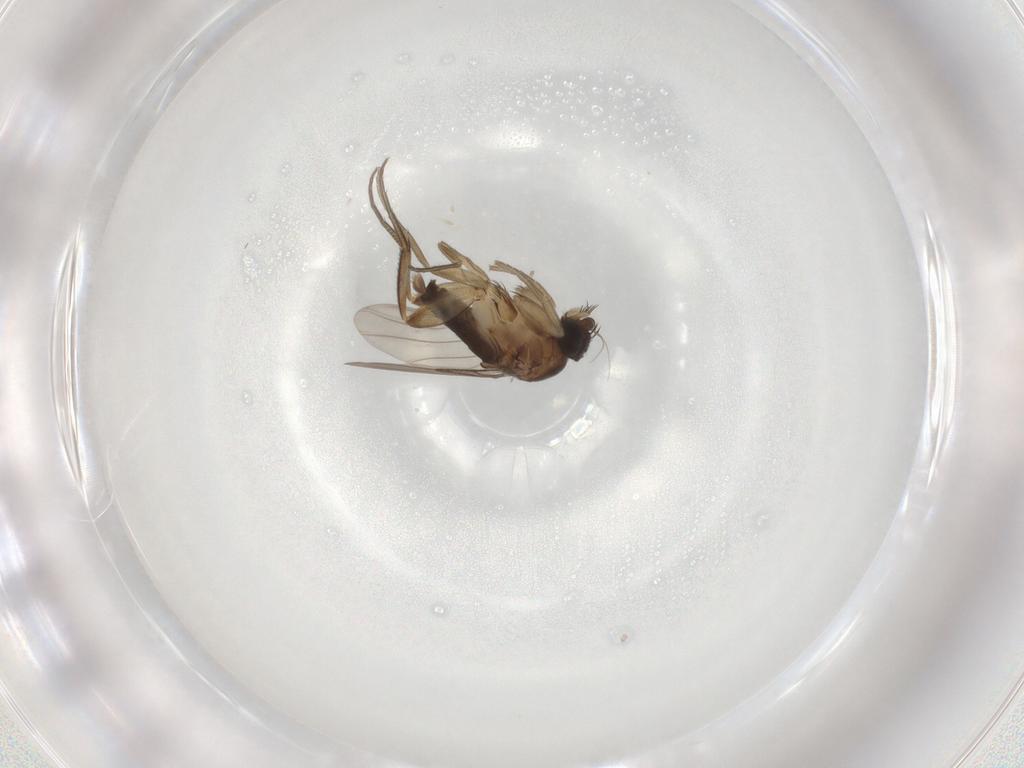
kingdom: Animalia
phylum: Arthropoda
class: Insecta
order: Diptera
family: Phoridae
